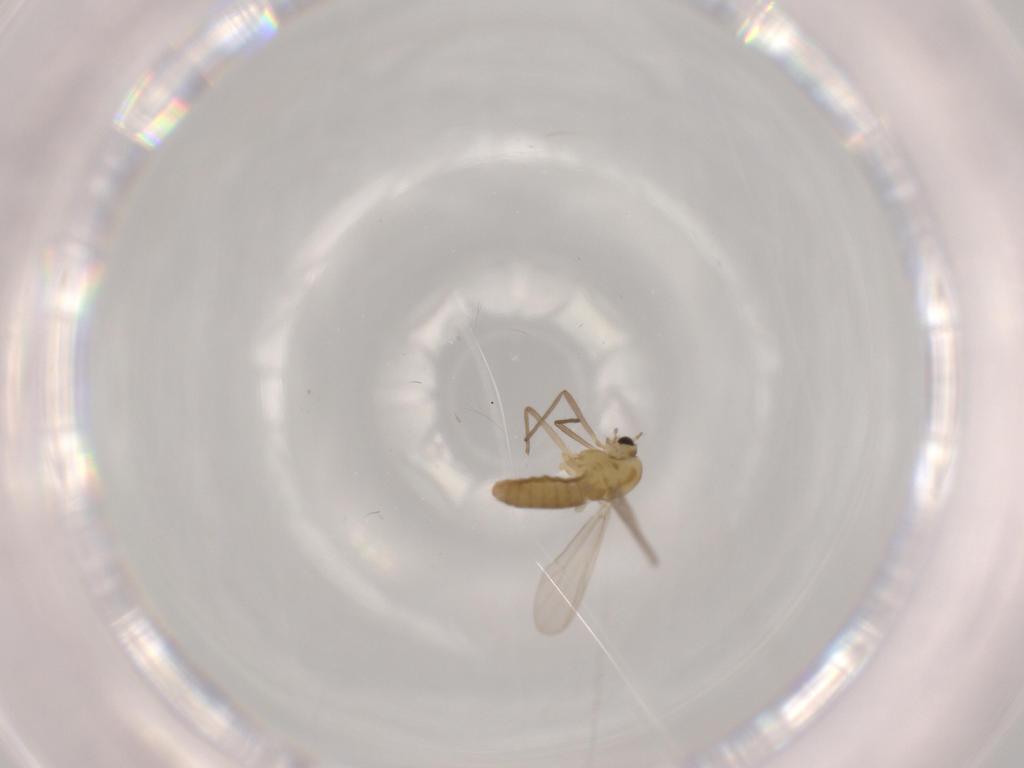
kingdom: Animalia
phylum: Arthropoda
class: Insecta
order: Diptera
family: Chironomidae
